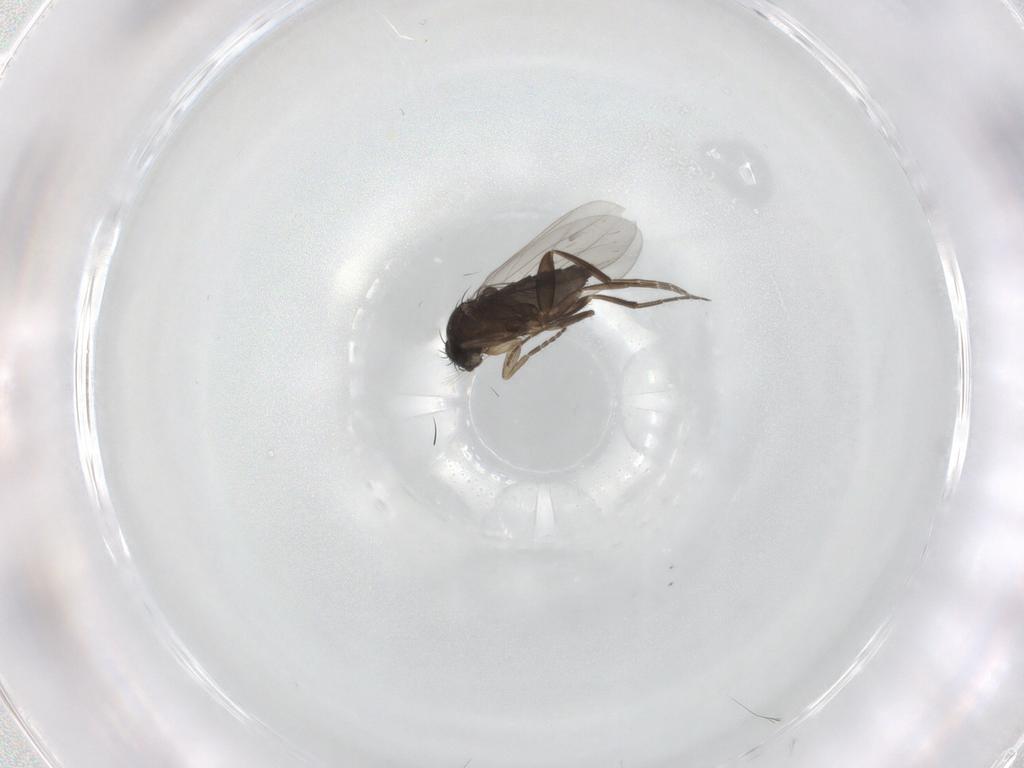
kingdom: Animalia
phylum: Arthropoda
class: Insecta
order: Diptera
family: Phoridae
